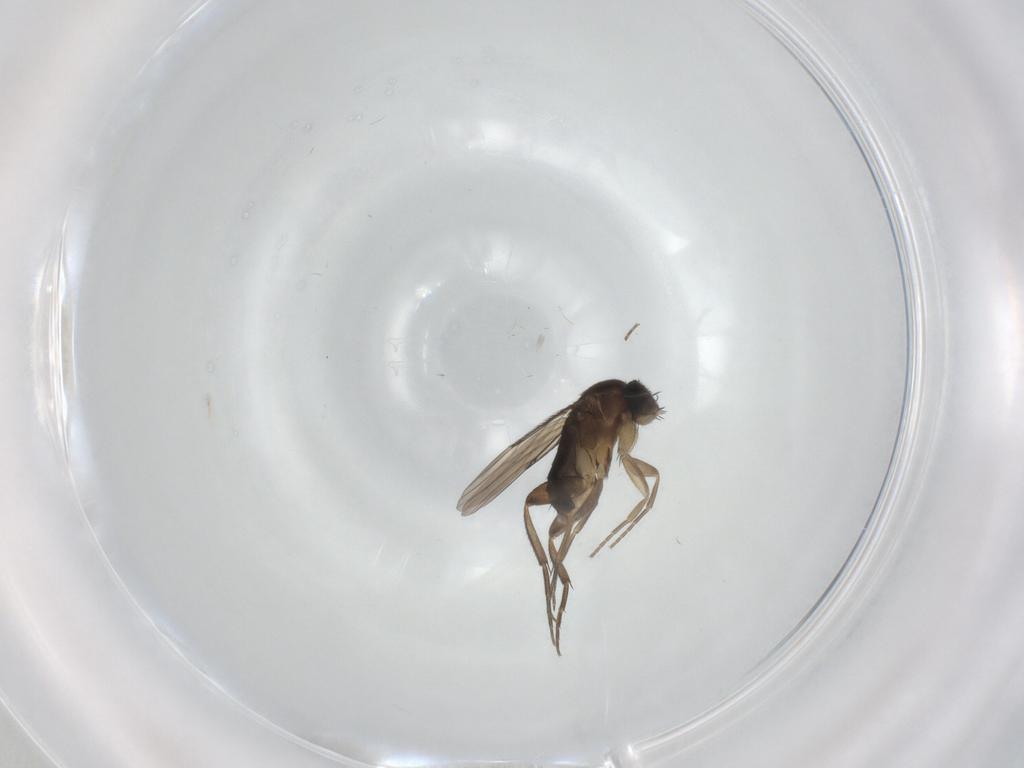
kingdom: Animalia
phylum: Arthropoda
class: Insecta
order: Diptera
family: Phoridae
